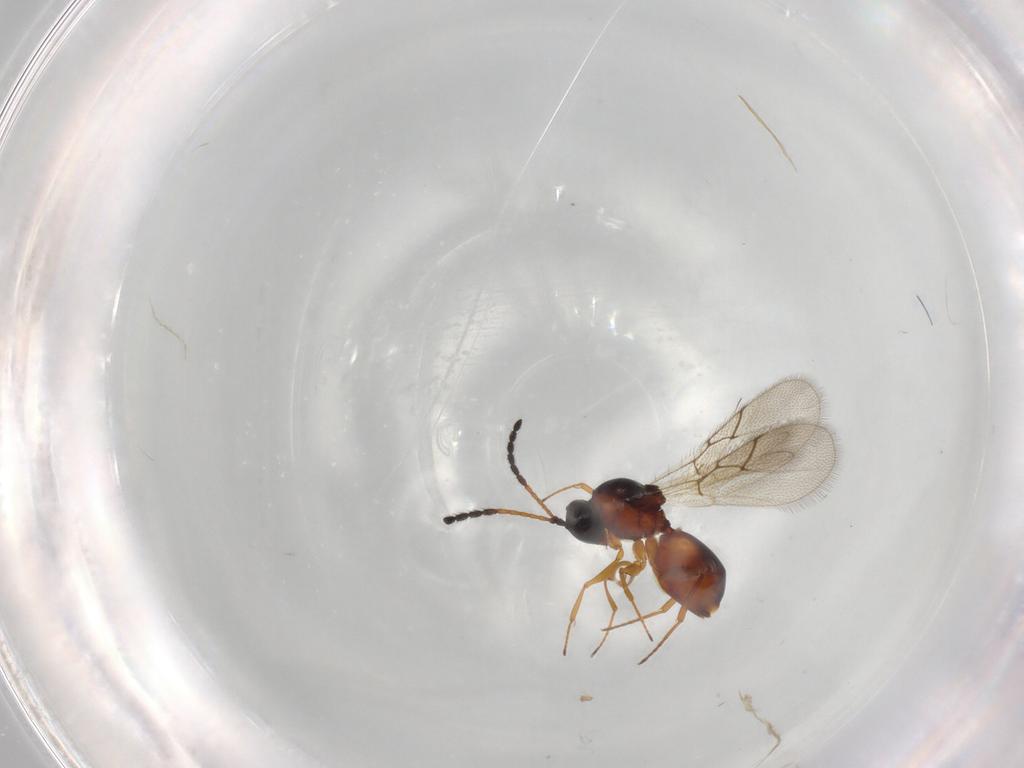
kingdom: Animalia
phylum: Arthropoda
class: Insecta
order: Hymenoptera
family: Figitidae
